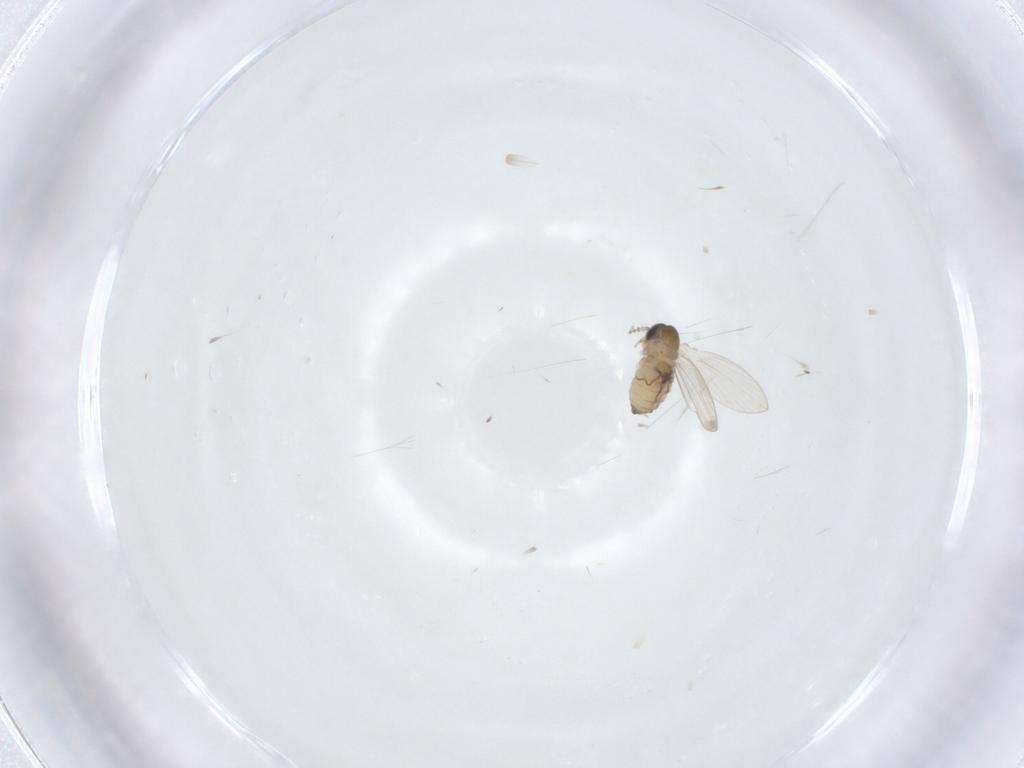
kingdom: Animalia
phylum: Arthropoda
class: Insecta
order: Diptera
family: Psychodidae
